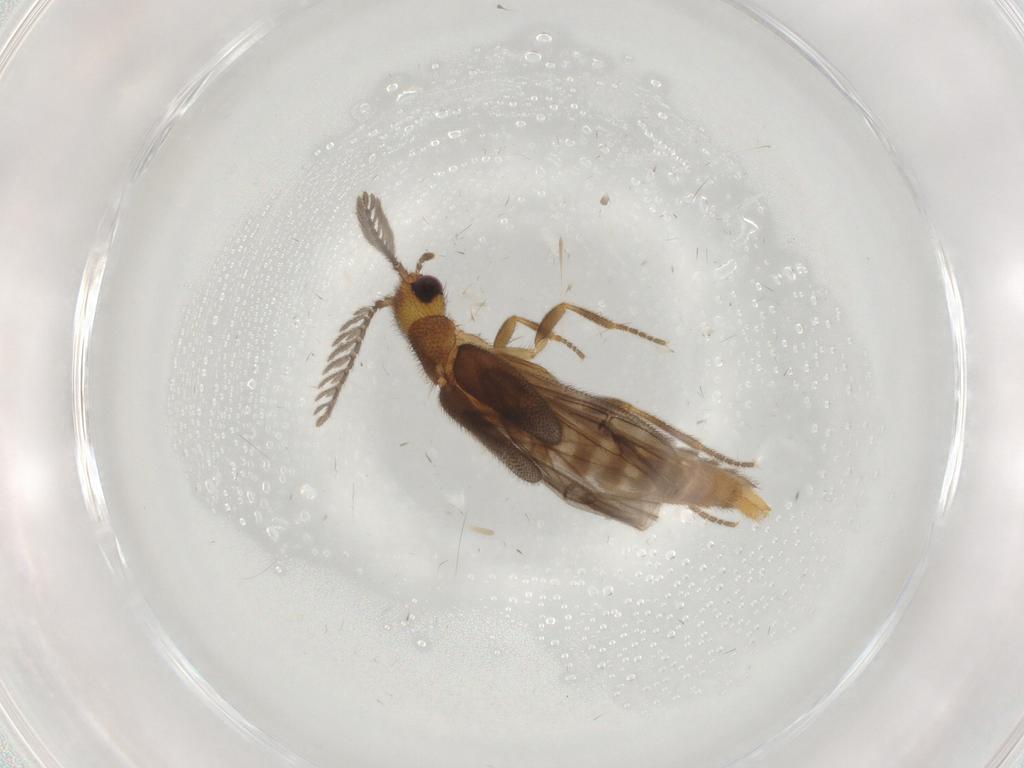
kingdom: Animalia
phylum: Arthropoda
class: Insecta
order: Coleoptera
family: Phengodidae
